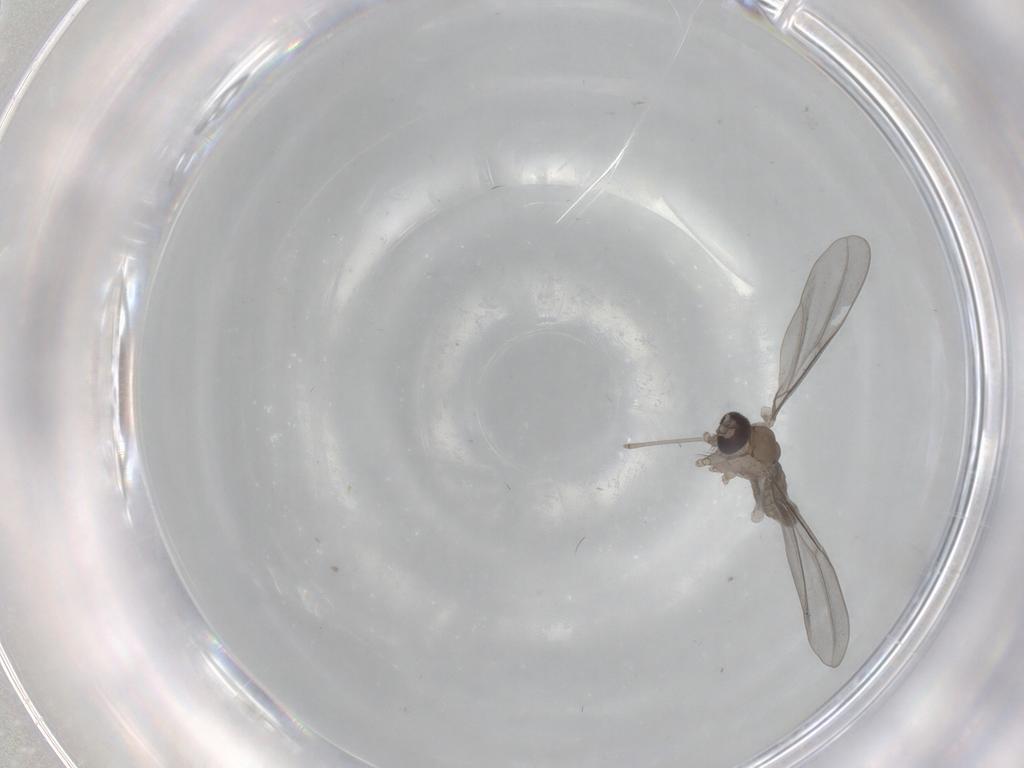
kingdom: Animalia
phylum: Arthropoda
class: Insecta
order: Diptera
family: Cecidomyiidae
